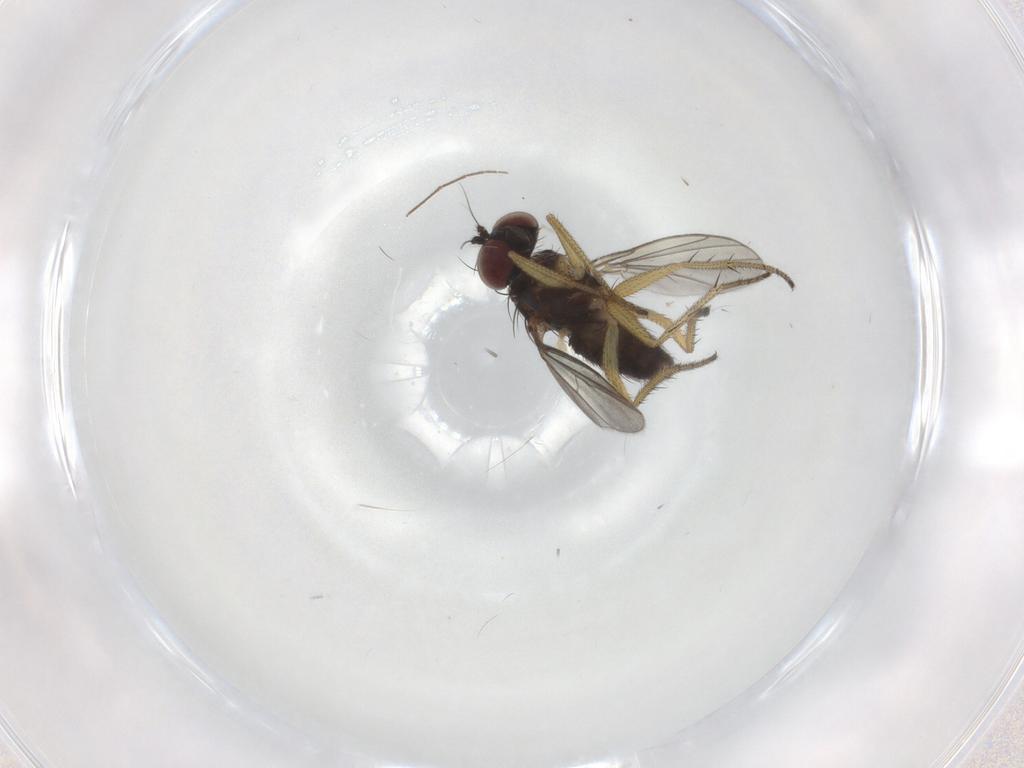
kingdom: Animalia
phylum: Arthropoda
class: Insecta
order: Diptera
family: Chironomidae
